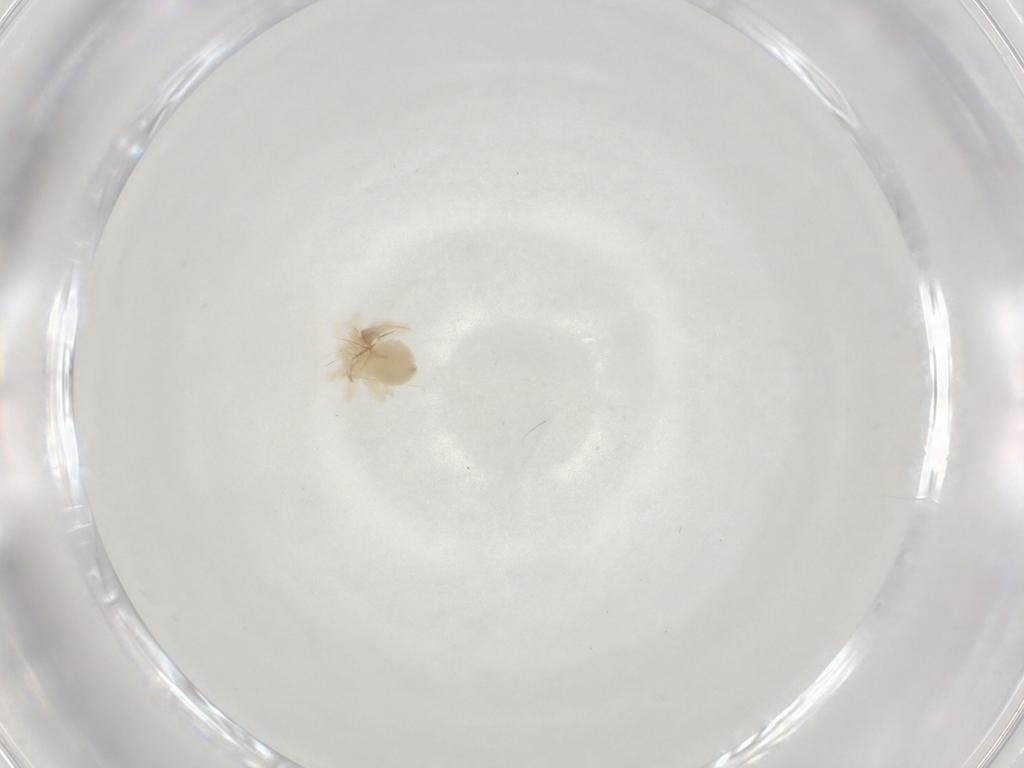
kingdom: Animalia
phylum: Arthropoda
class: Arachnida
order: Trombidiformes
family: Anystidae
